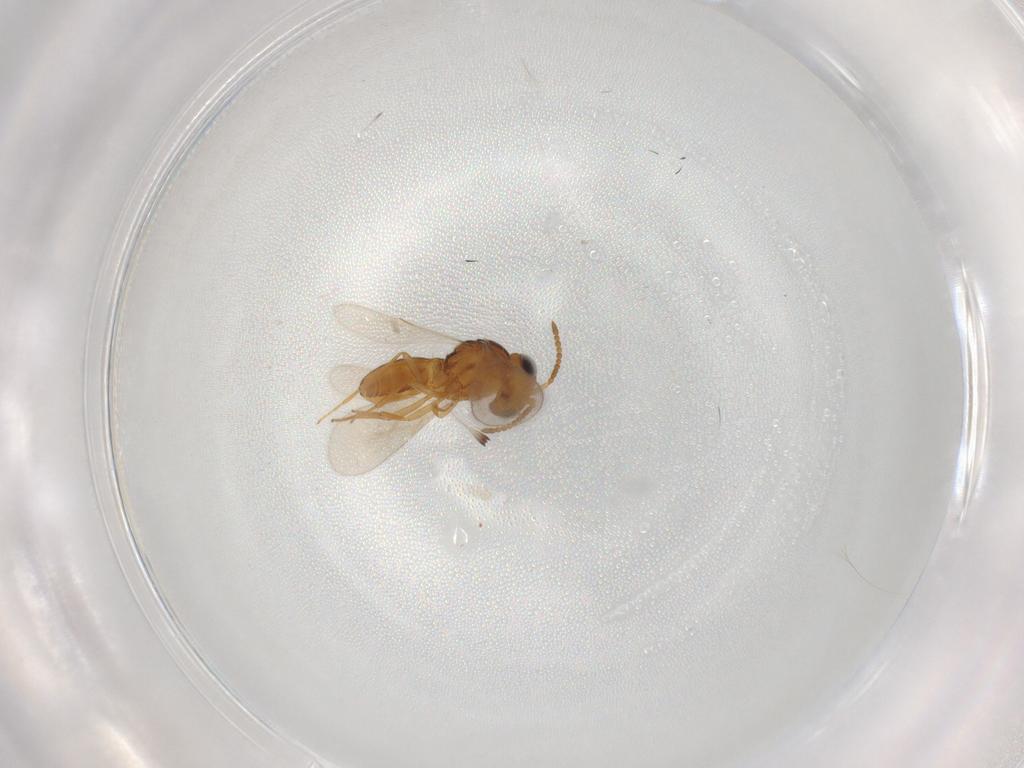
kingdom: Animalia
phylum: Arthropoda
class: Insecta
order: Hymenoptera
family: Scelionidae
